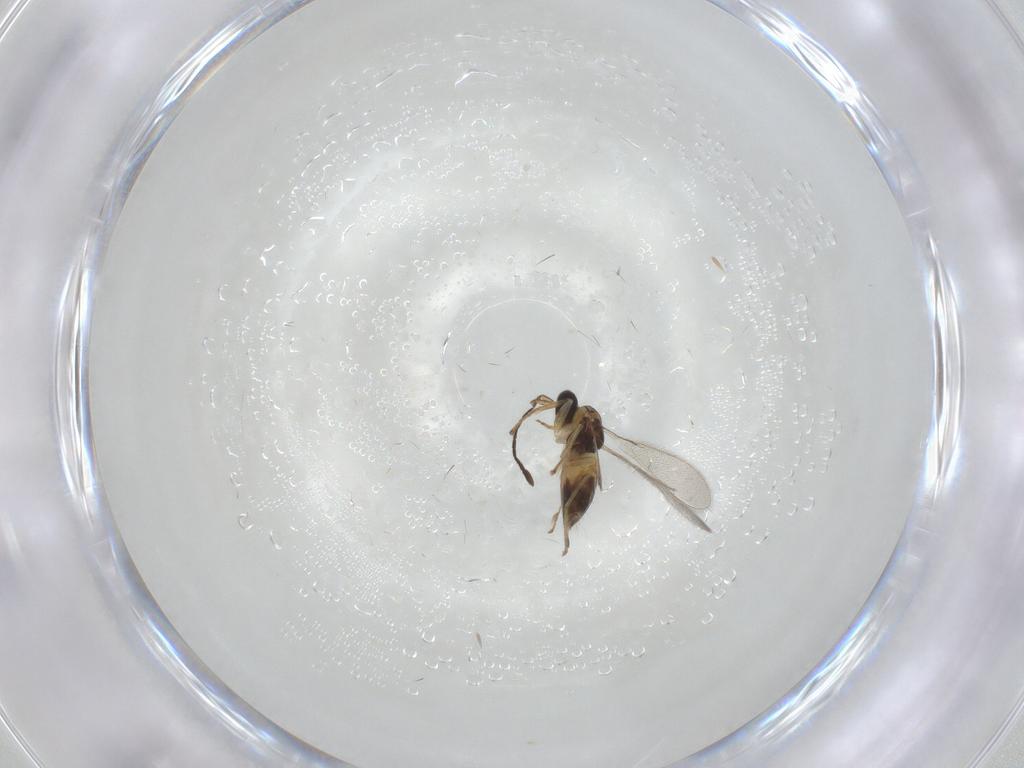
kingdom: Animalia
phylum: Arthropoda
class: Insecta
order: Hymenoptera
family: Ceraphronidae
